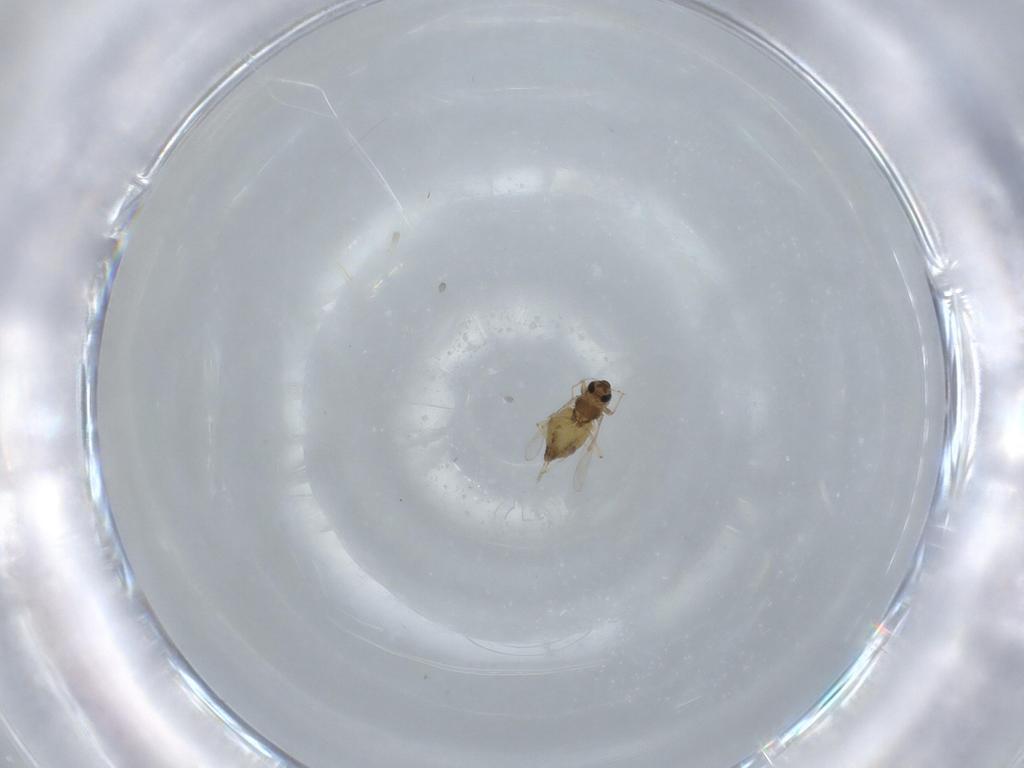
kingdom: Animalia
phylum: Arthropoda
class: Insecta
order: Diptera
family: Chironomidae
